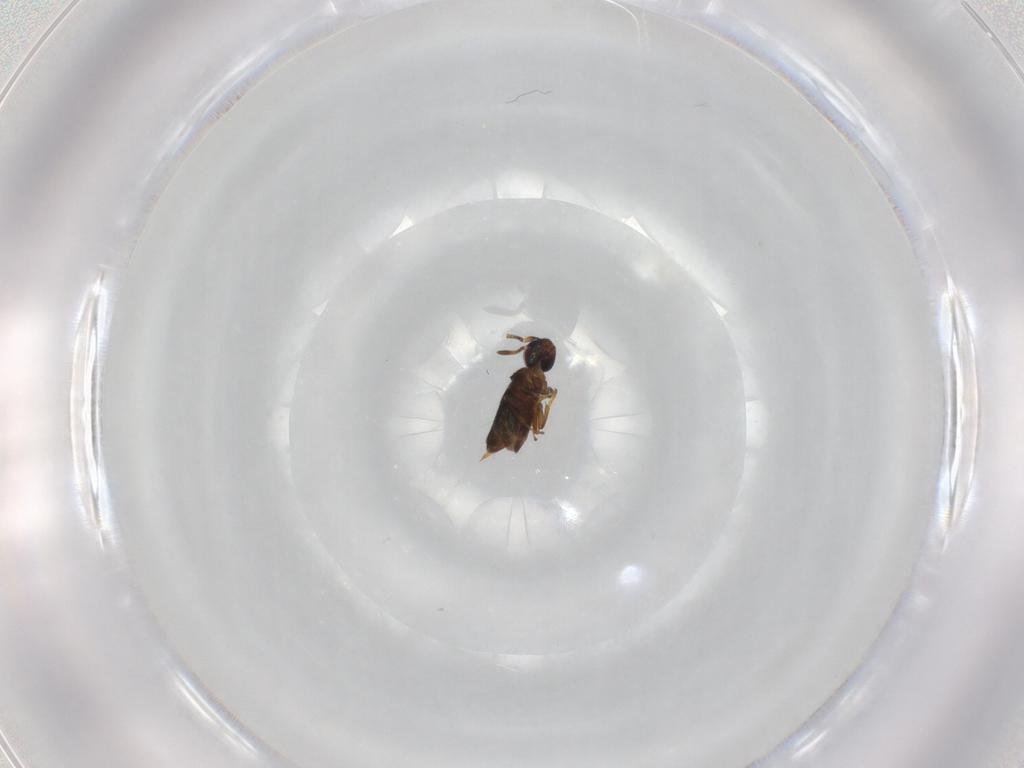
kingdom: Animalia
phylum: Arthropoda
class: Insecta
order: Hymenoptera
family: Encyrtidae
